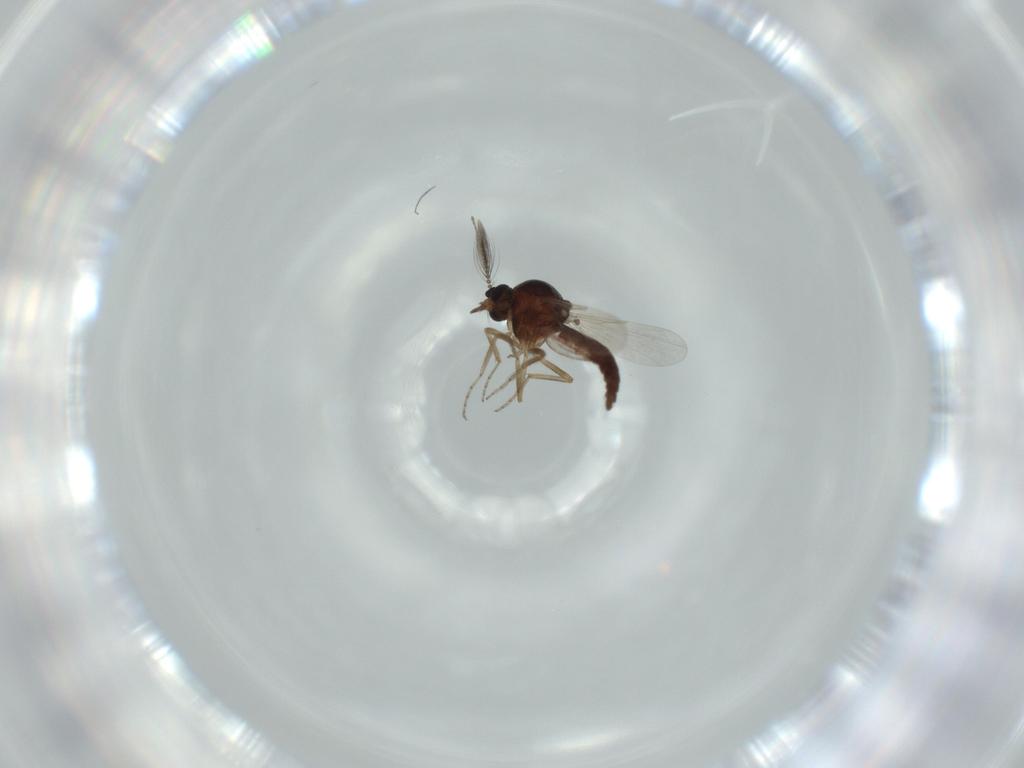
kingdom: Animalia
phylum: Arthropoda
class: Insecta
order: Diptera
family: Ceratopogonidae
